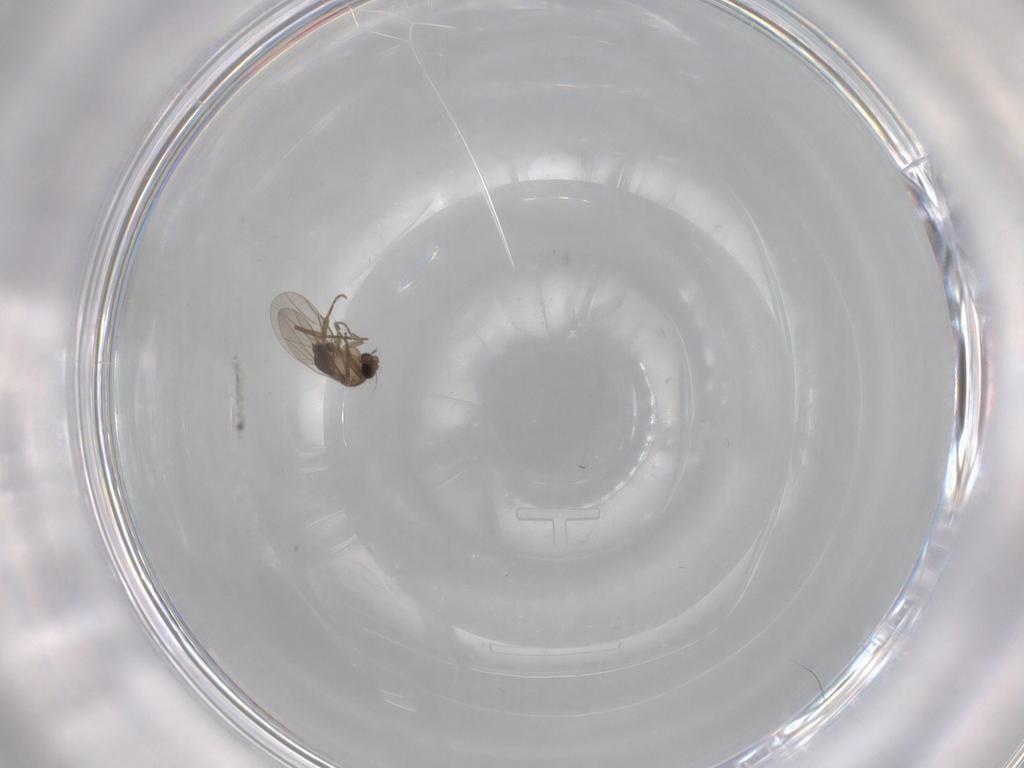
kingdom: Animalia
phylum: Arthropoda
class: Insecta
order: Diptera
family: Phoridae
